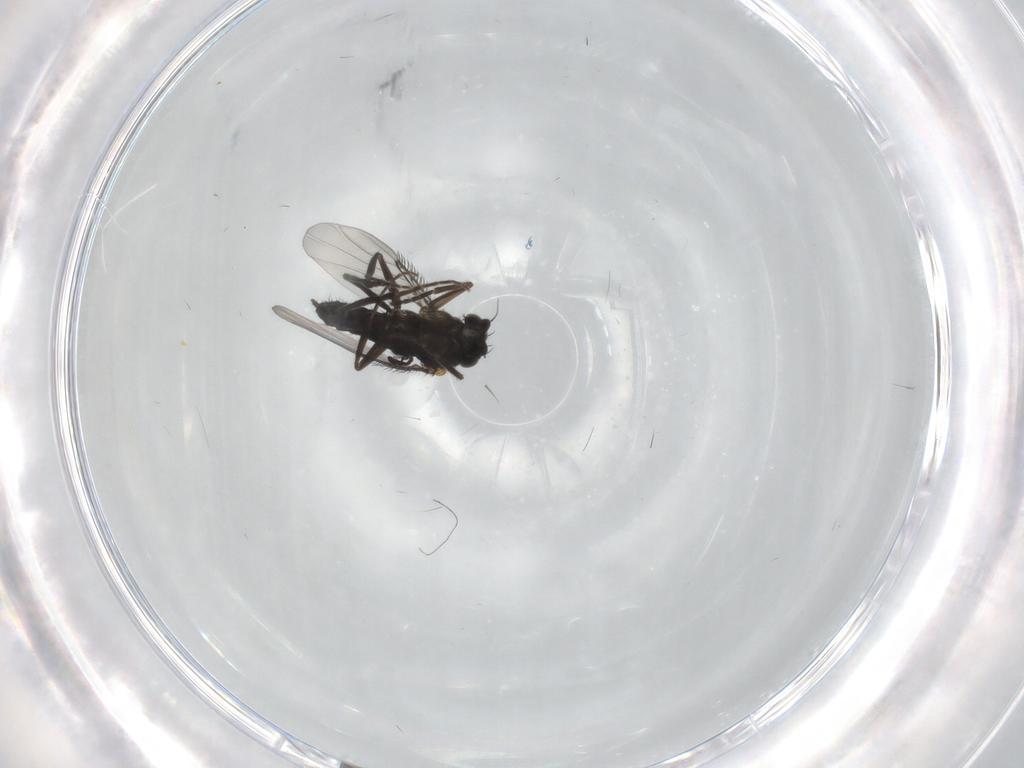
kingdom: Animalia
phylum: Arthropoda
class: Insecta
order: Diptera
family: Phoridae
